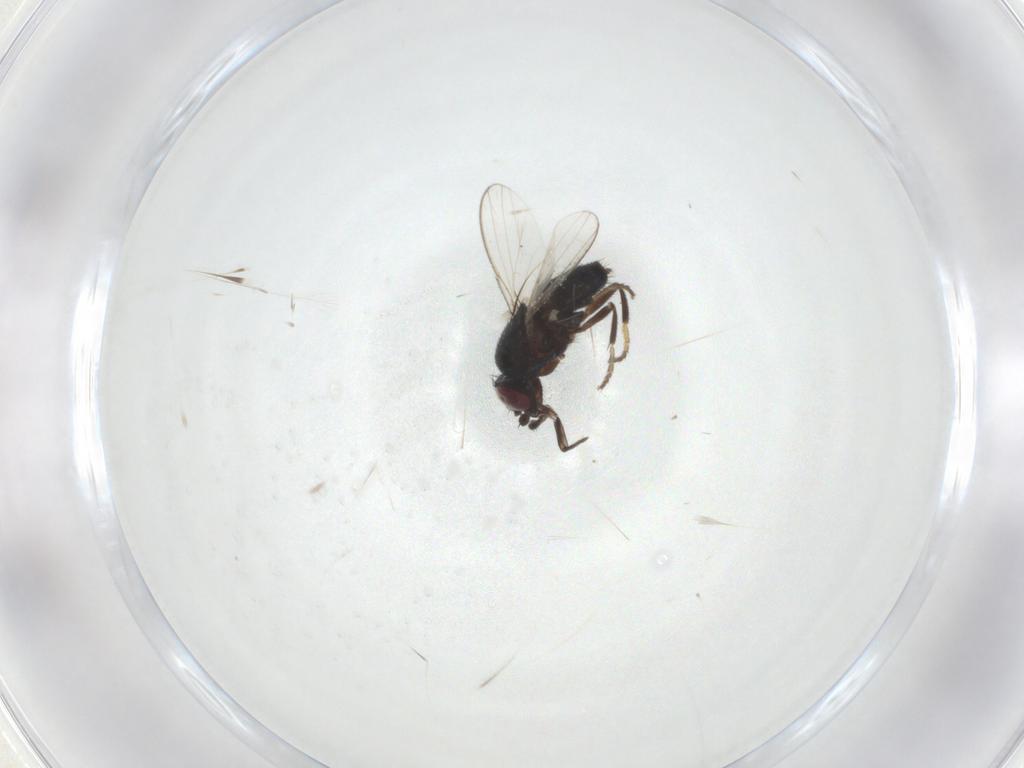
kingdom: Animalia
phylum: Arthropoda
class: Insecta
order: Diptera
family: Milichiidae
